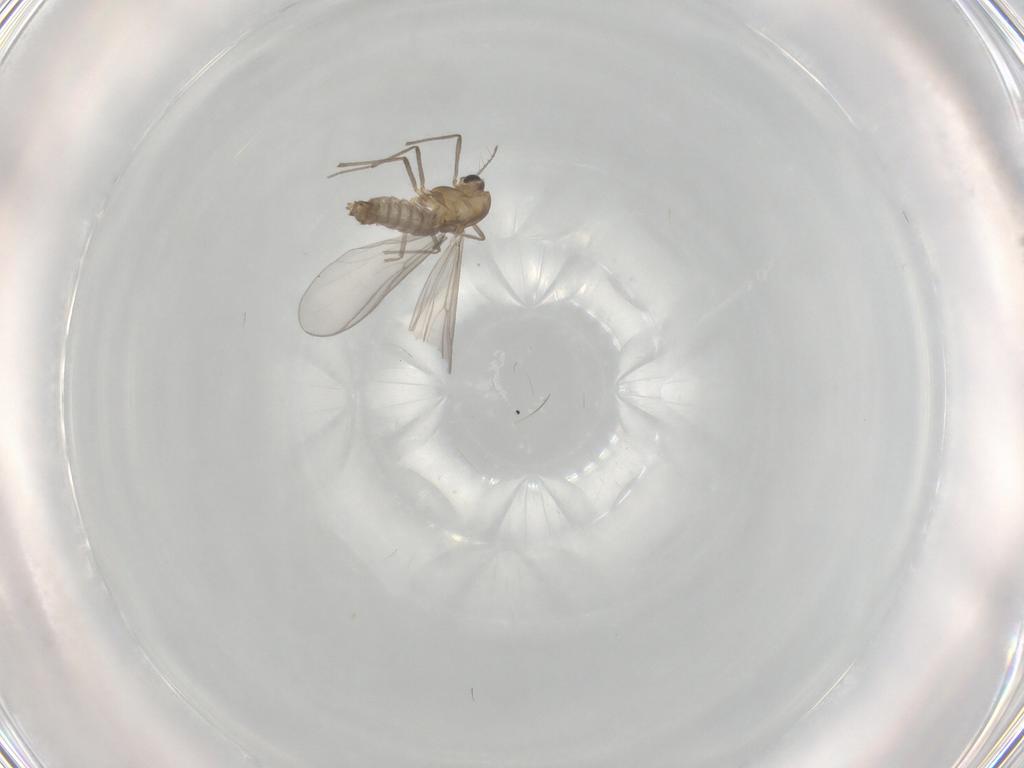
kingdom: Animalia
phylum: Arthropoda
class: Insecta
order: Diptera
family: Chironomidae
